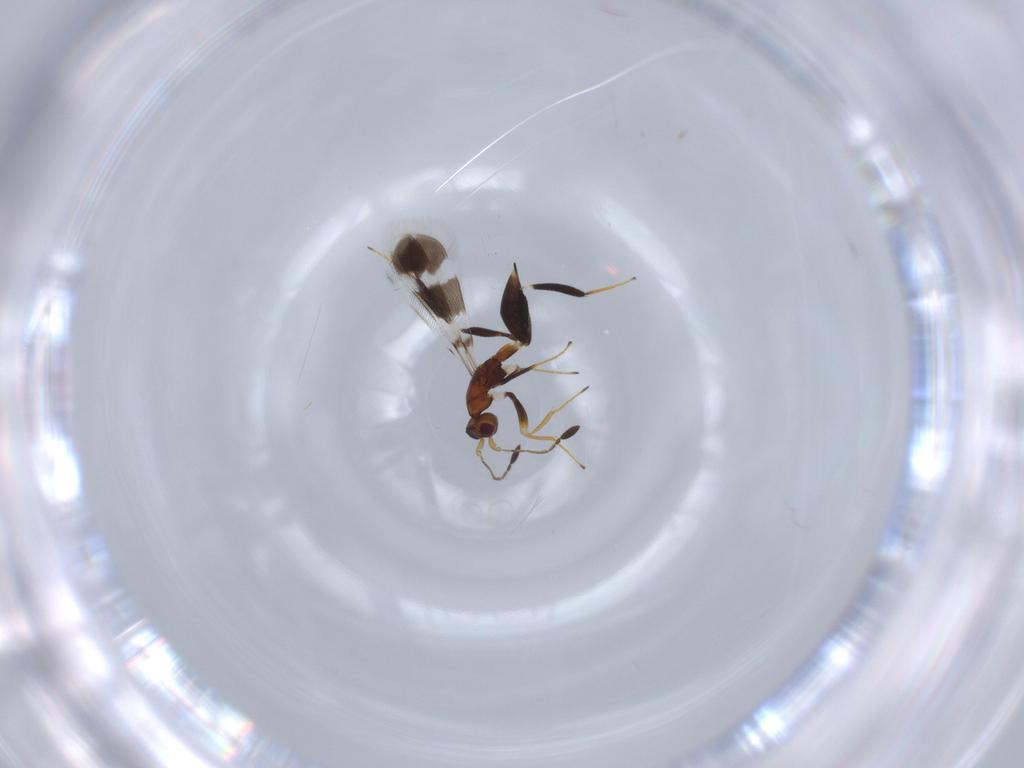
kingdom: Animalia
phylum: Arthropoda
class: Insecta
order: Hymenoptera
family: Mymaridae
